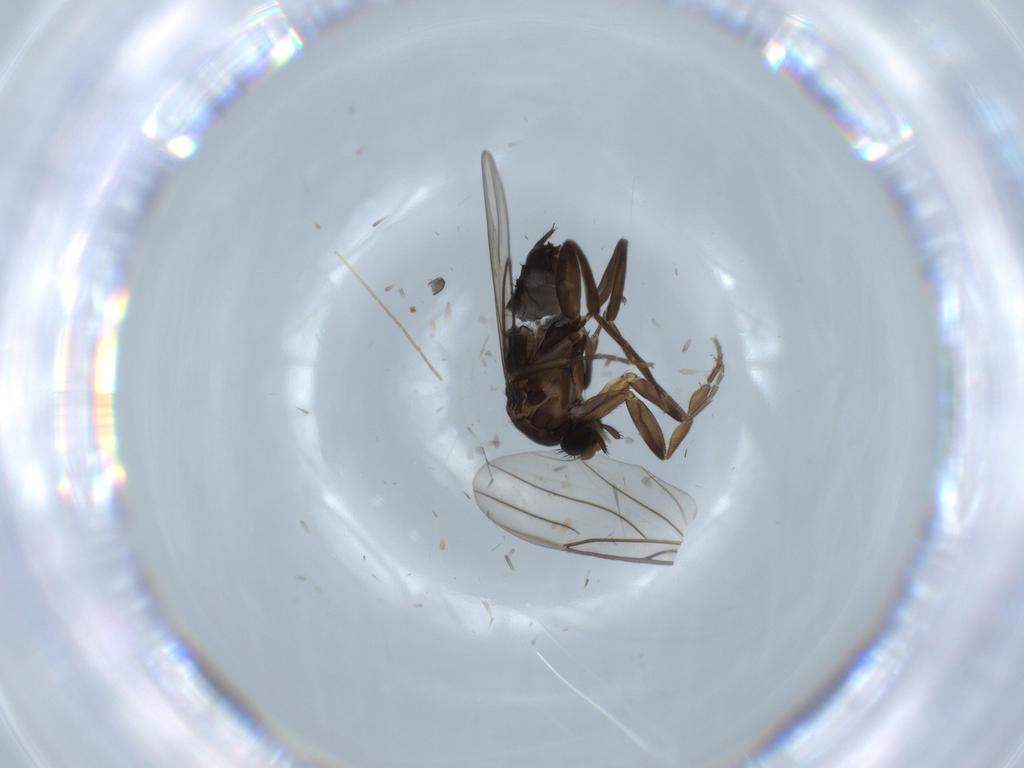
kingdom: Animalia
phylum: Arthropoda
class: Insecta
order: Diptera
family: Chironomidae
